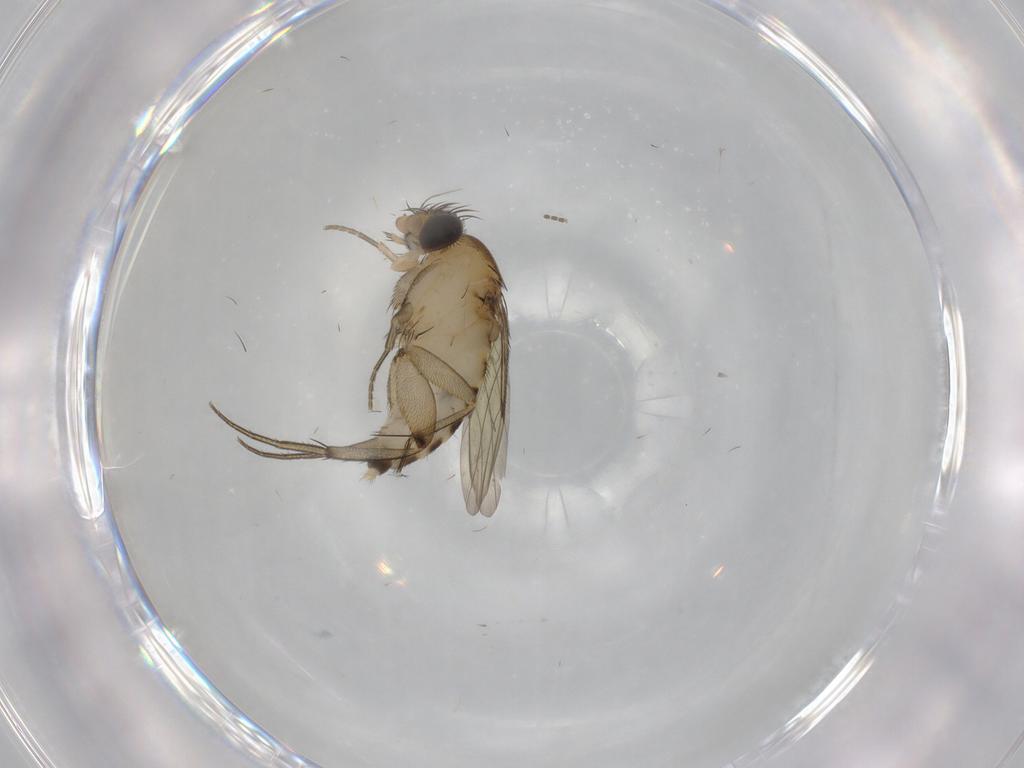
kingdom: Animalia
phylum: Arthropoda
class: Insecta
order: Diptera
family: Phoridae
